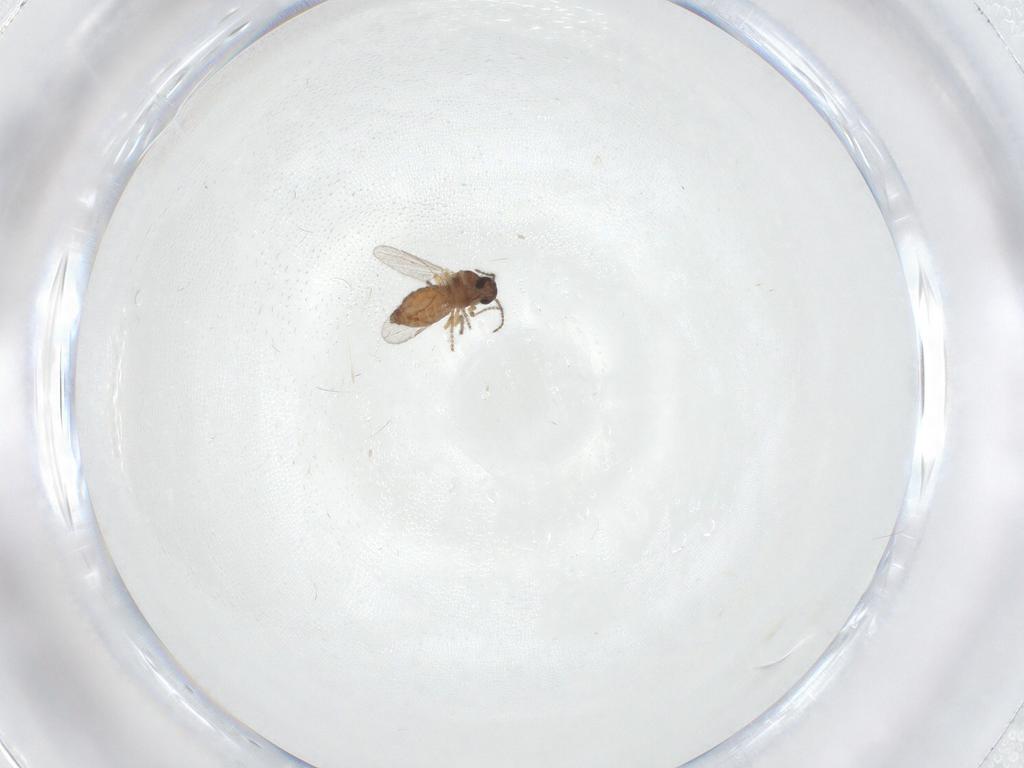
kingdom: Animalia
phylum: Arthropoda
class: Insecta
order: Diptera
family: Ceratopogonidae
